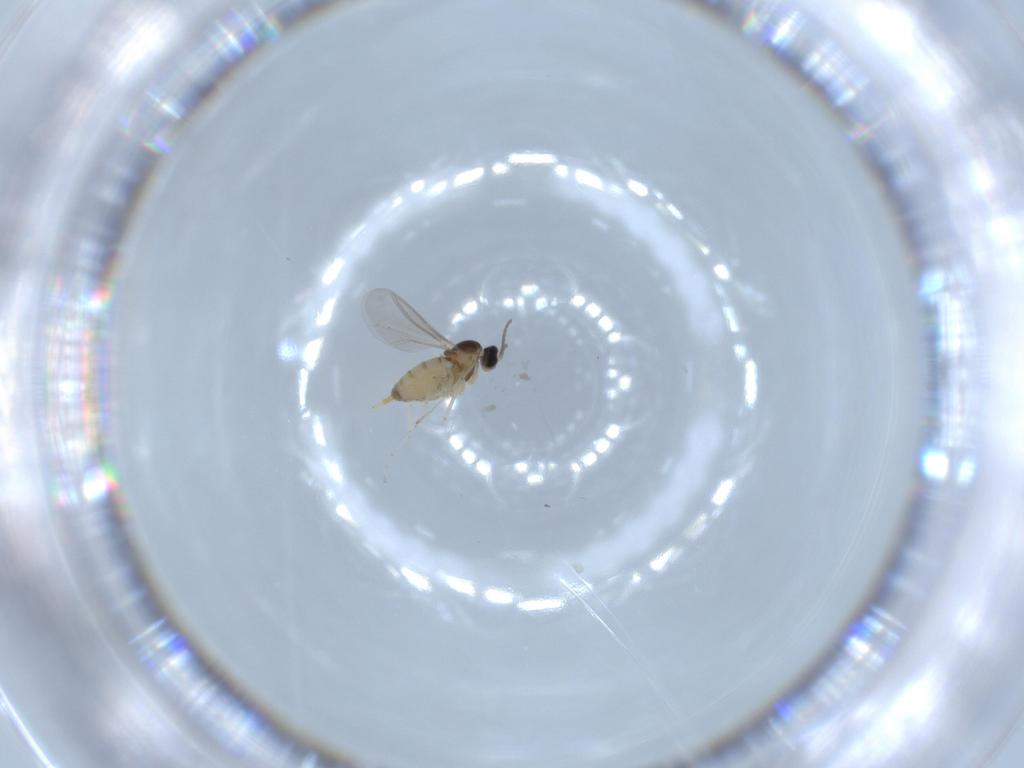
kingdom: Animalia
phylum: Arthropoda
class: Insecta
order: Diptera
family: Cecidomyiidae
